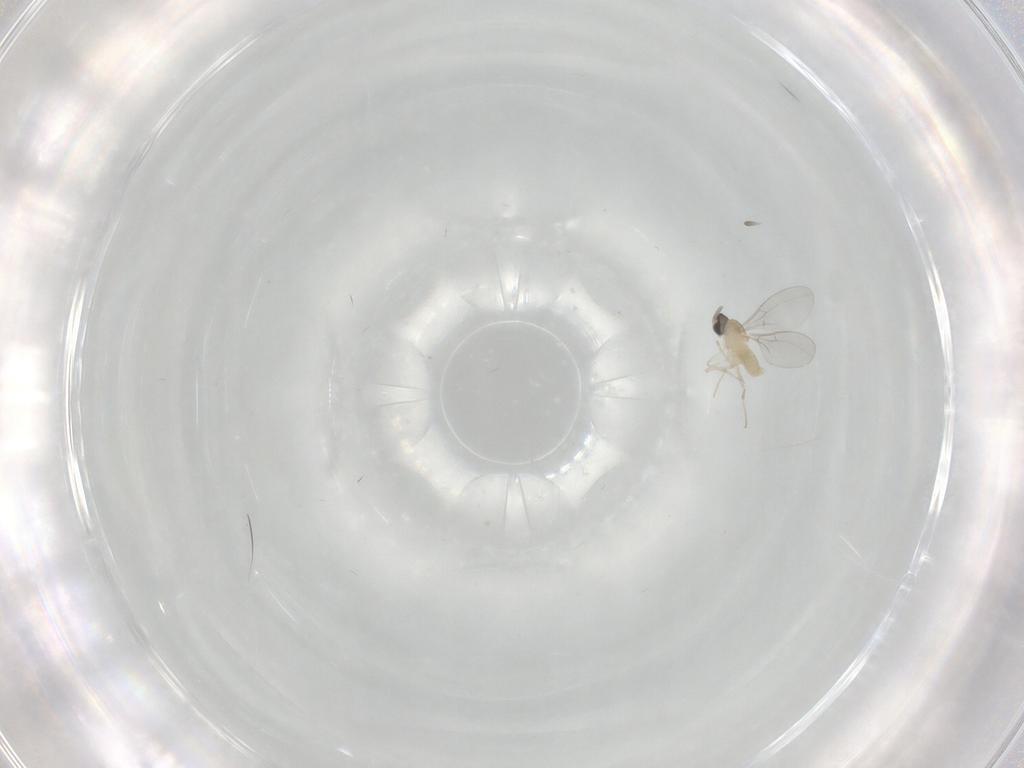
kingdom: Animalia
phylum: Arthropoda
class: Insecta
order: Diptera
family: Cecidomyiidae
